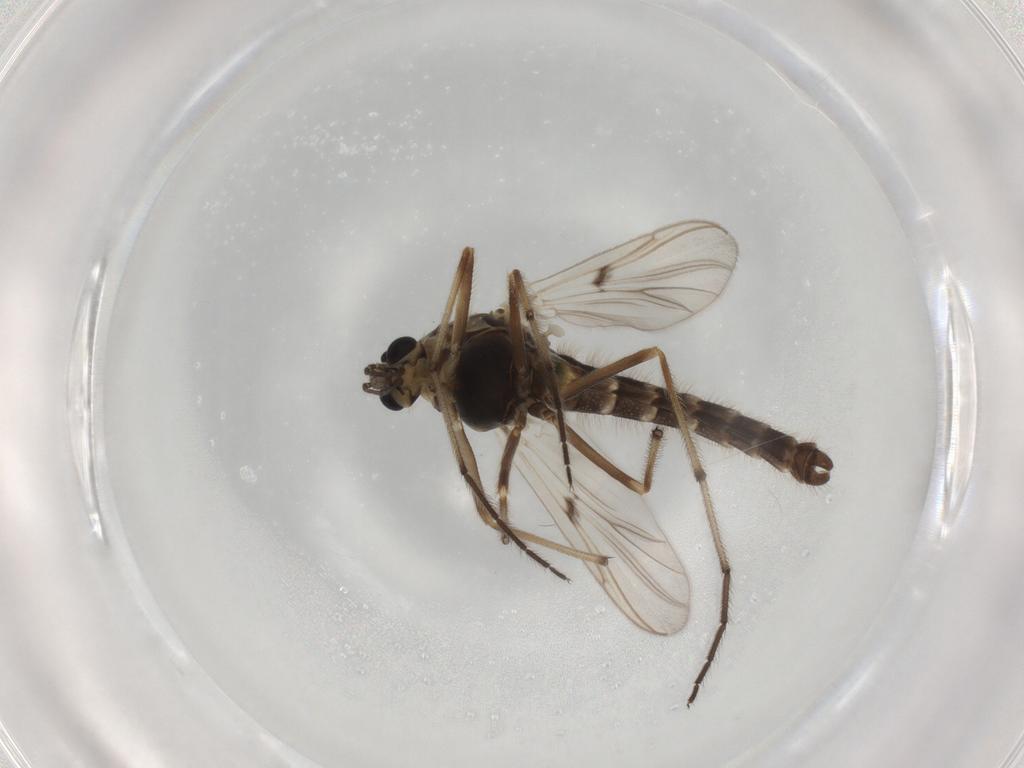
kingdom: Animalia
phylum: Arthropoda
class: Insecta
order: Diptera
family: Chironomidae
